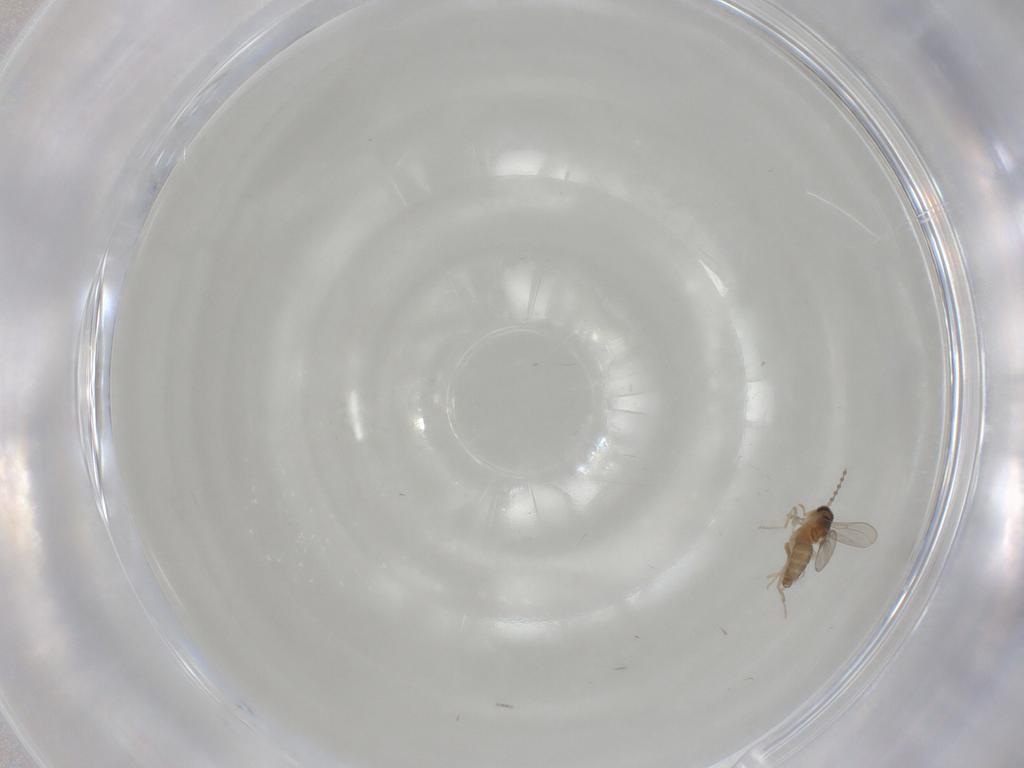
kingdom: Animalia
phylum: Arthropoda
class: Insecta
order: Diptera
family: Cecidomyiidae
